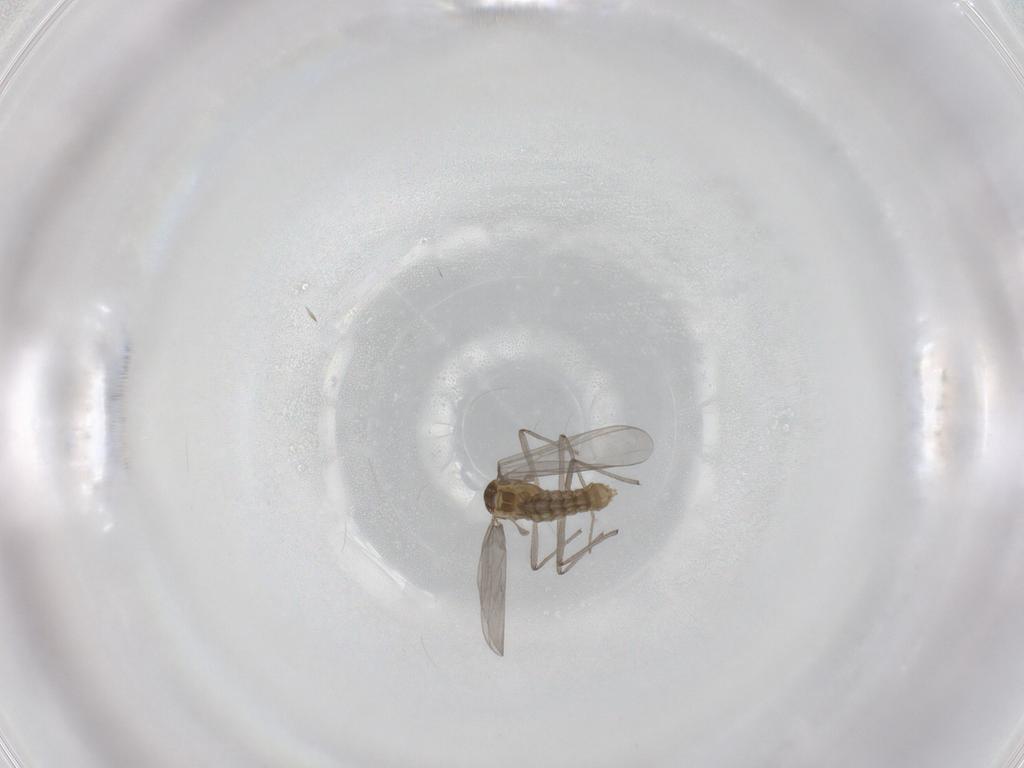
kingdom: Animalia
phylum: Arthropoda
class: Insecta
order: Diptera
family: Chironomidae
